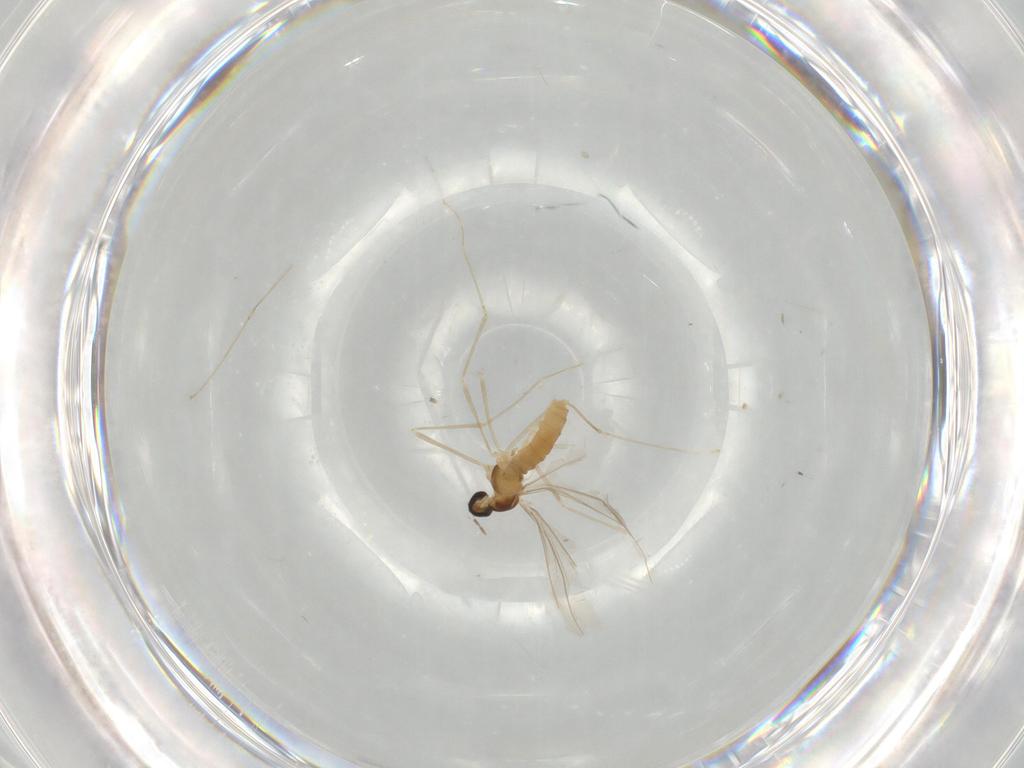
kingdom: Animalia
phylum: Arthropoda
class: Insecta
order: Diptera
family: Cecidomyiidae
